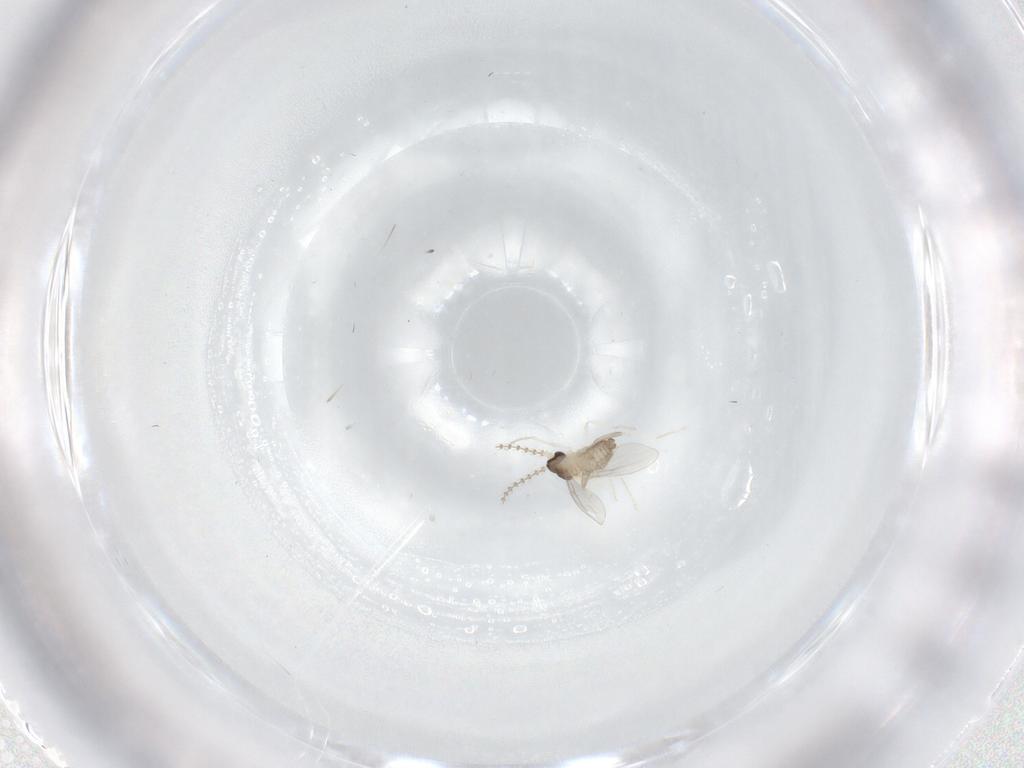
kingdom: Animalia
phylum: Arthropoda
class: Insecta
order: Diptera
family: Cecidomyiidae
